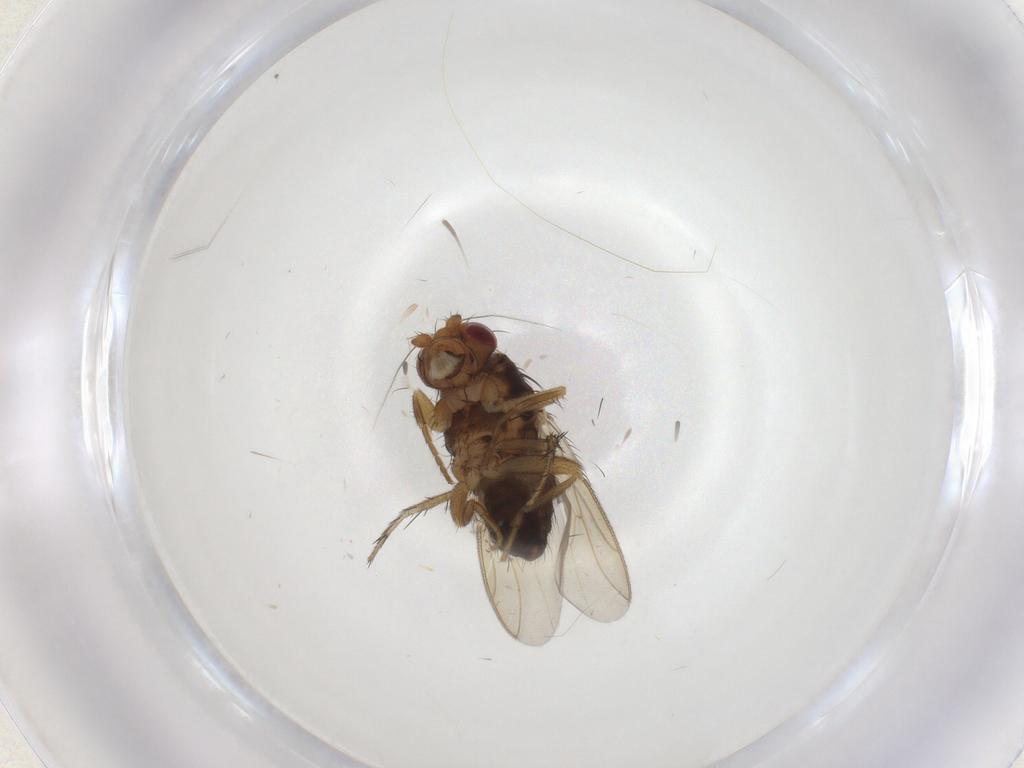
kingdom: Animalia
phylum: Arthropoda
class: Insecta
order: Diptera
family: Sphaeroceridae
